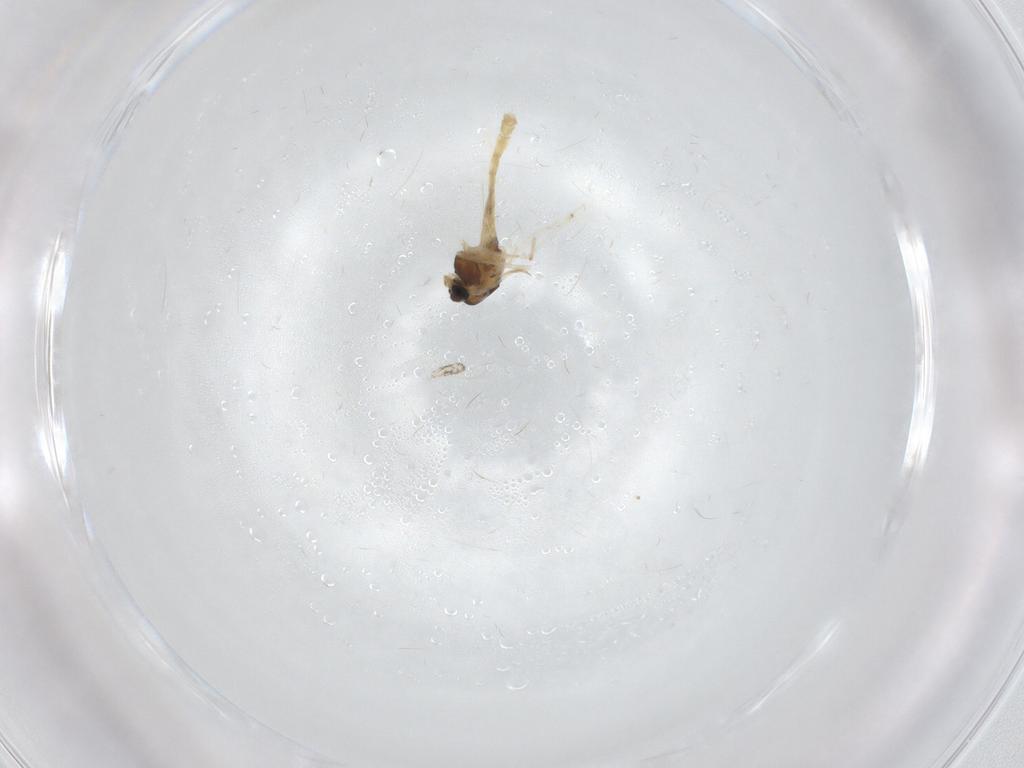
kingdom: Animalia
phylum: Arthropoda
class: Insecta
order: Diptera
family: Chironomidae
